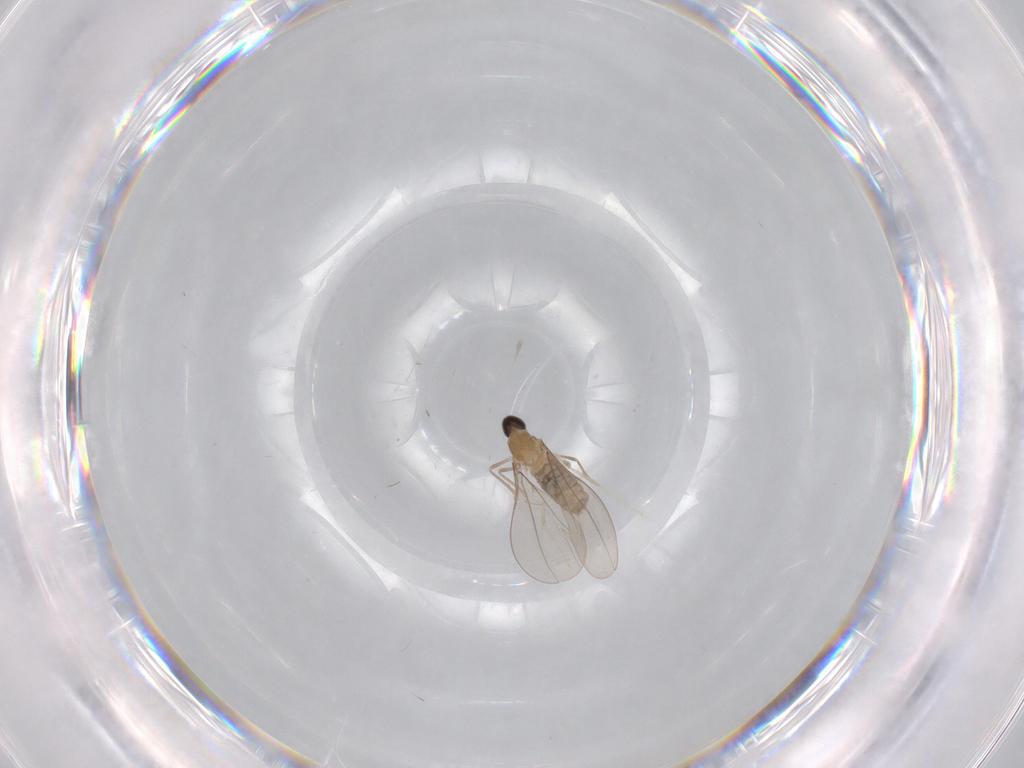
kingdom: Animalia
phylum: Arthropoda
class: Insecta
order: Diptera
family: Cecidomyiidae
